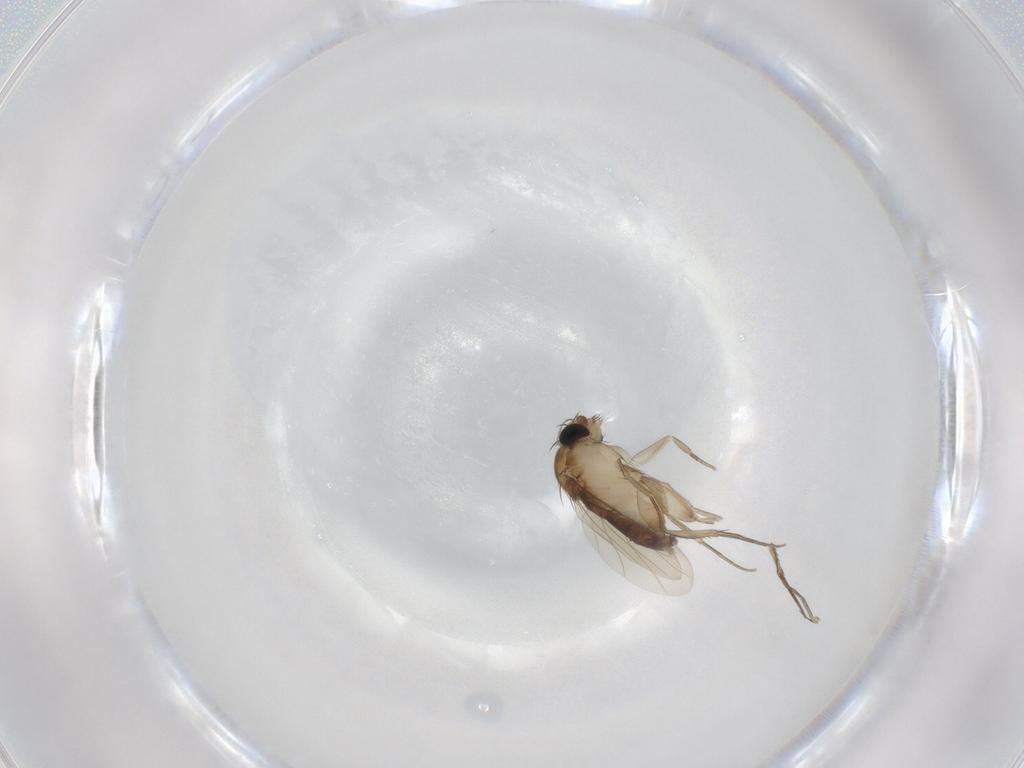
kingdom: Animalia
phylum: Arthropoda
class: Insecta
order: Diptera
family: Phoridae
